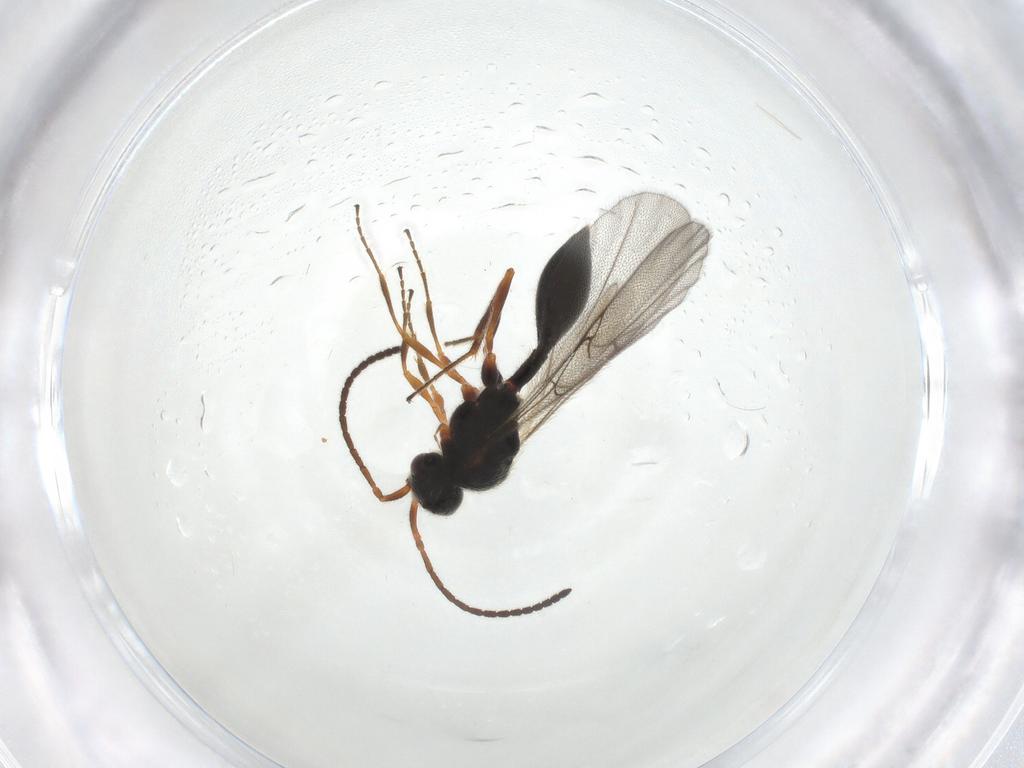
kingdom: Animalia
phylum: Arthropoda
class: Insecta
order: Hymenoptera
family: Diapriidae
